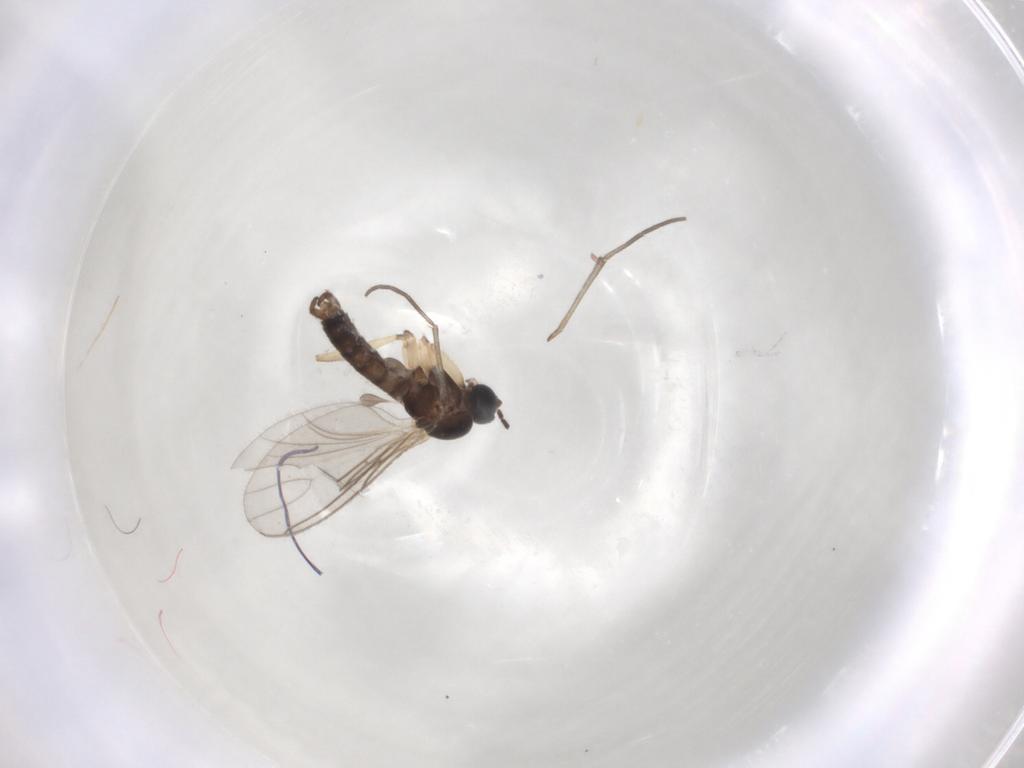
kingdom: Animalia
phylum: Arthropoda
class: Insecta
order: Diptera
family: Sciaridae
